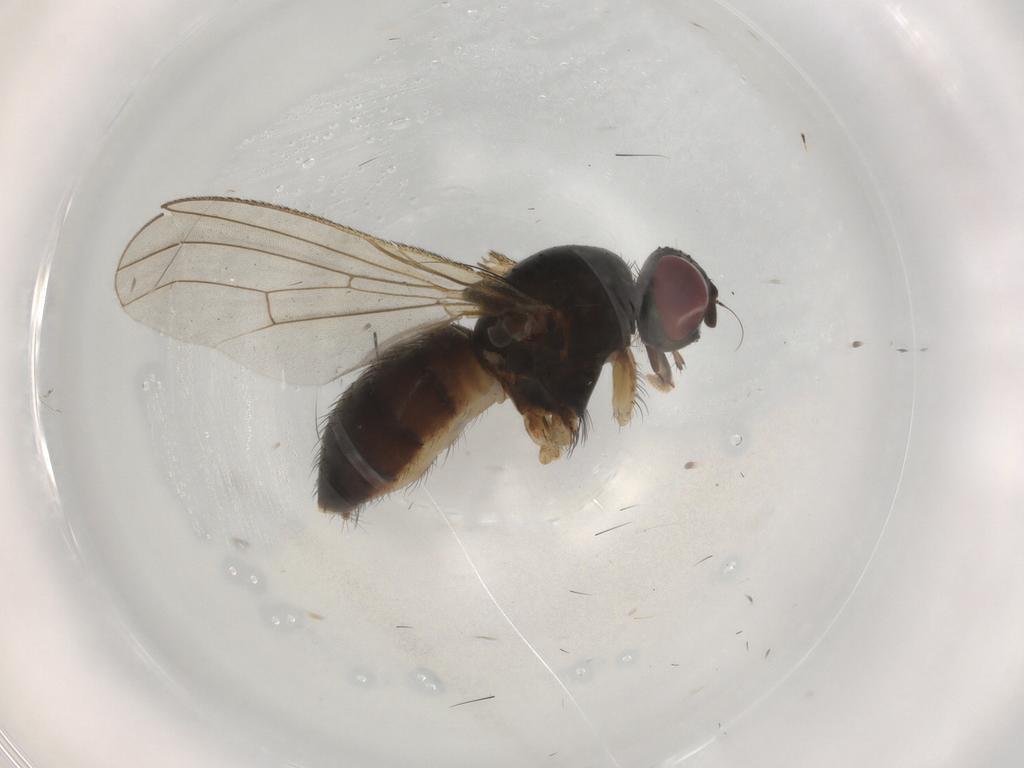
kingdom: Animalia
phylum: Arthropoda
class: Insecta
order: Diptera
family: Muscidae
